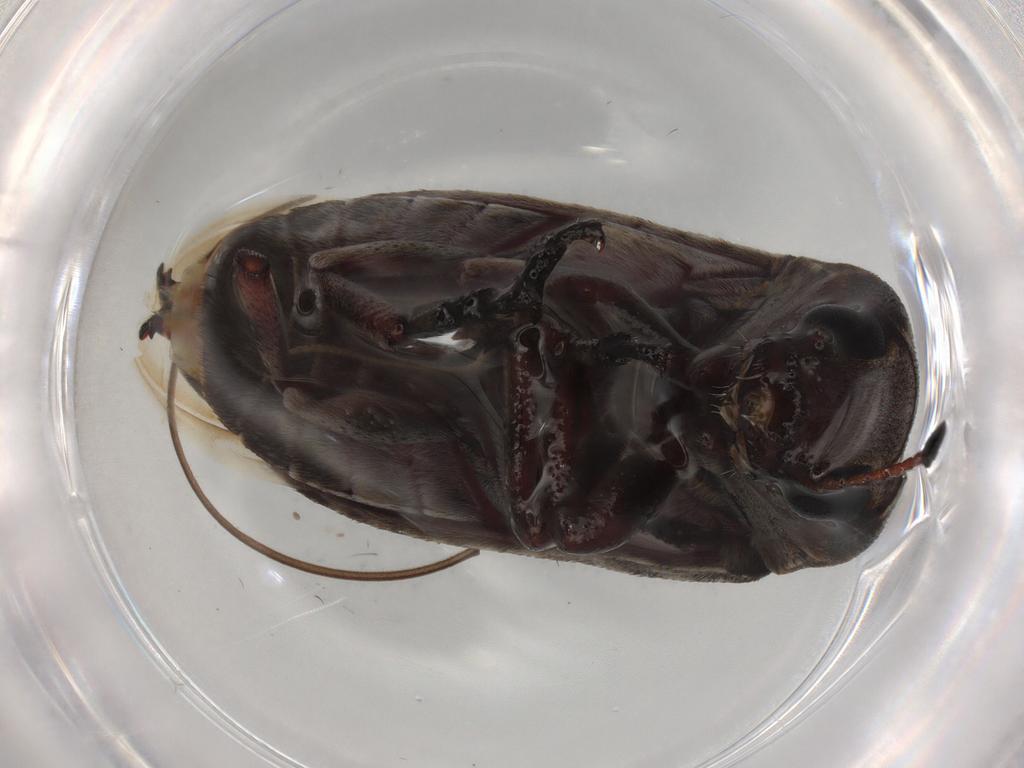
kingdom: Animalia
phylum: Arthropoda
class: Insecta
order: Coleoptera
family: Anthribidae
